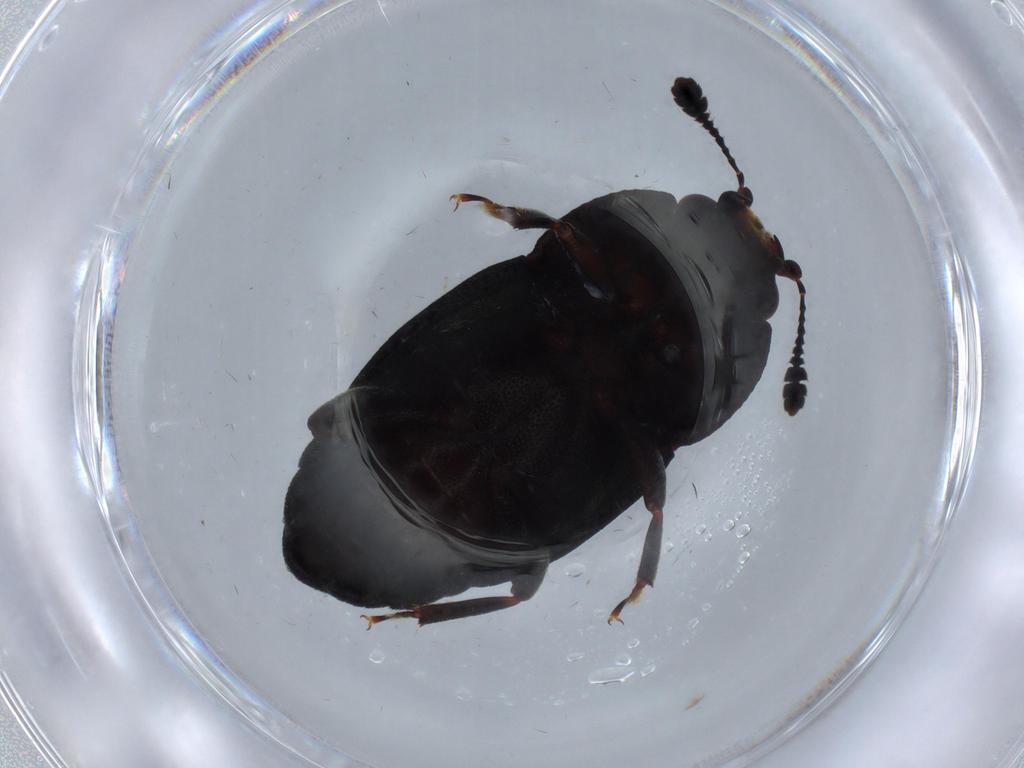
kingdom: Animalia
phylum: Arthropoda
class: Insecta
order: Coleoptera
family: Nitidulidae
